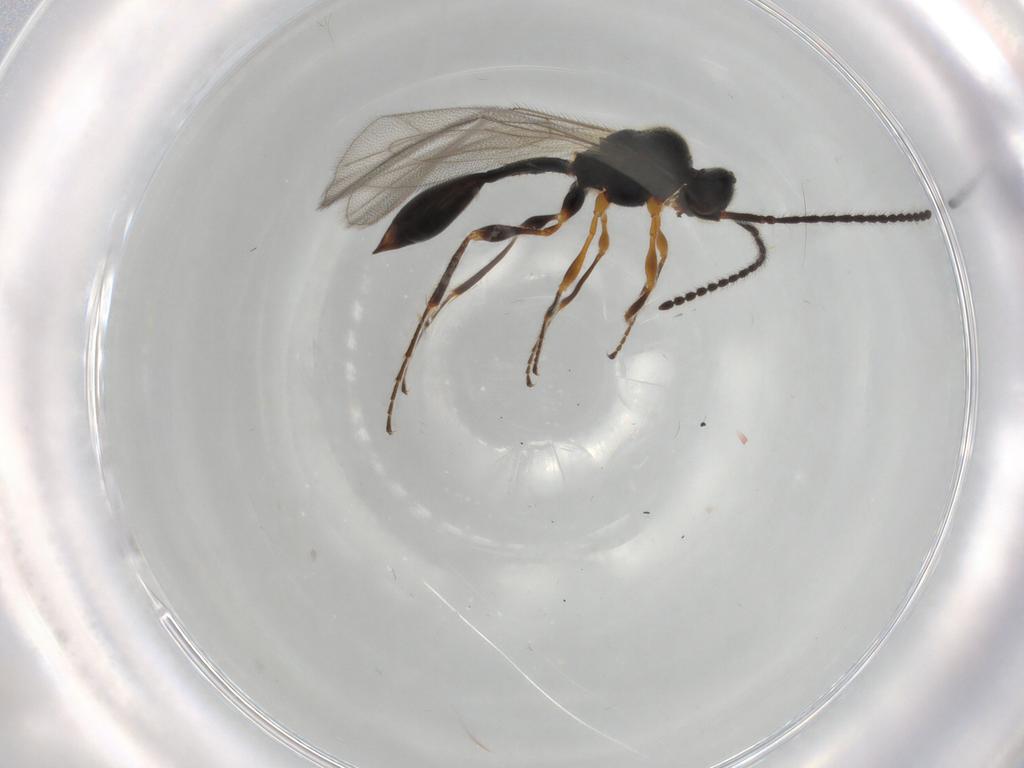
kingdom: Animalia
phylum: Arthropoda
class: Insecta
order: Hymenoptera
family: Diapriidae
